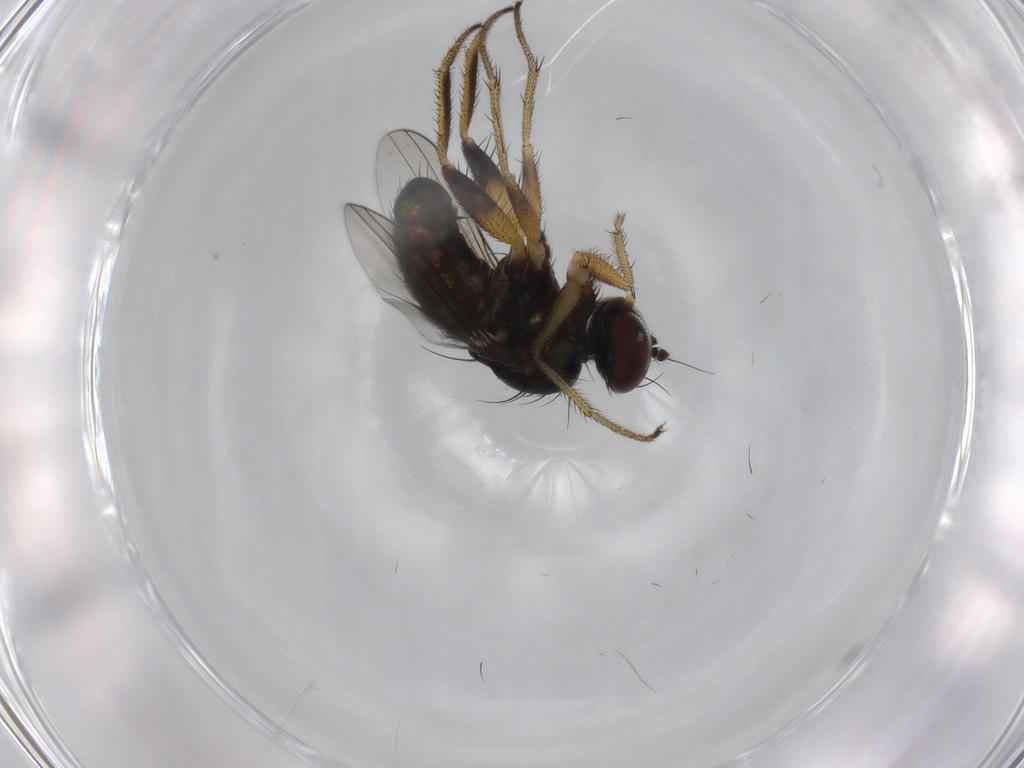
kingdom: Animalia
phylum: Arthropoda
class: Insecta
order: Diptera
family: Dolichopodidae
